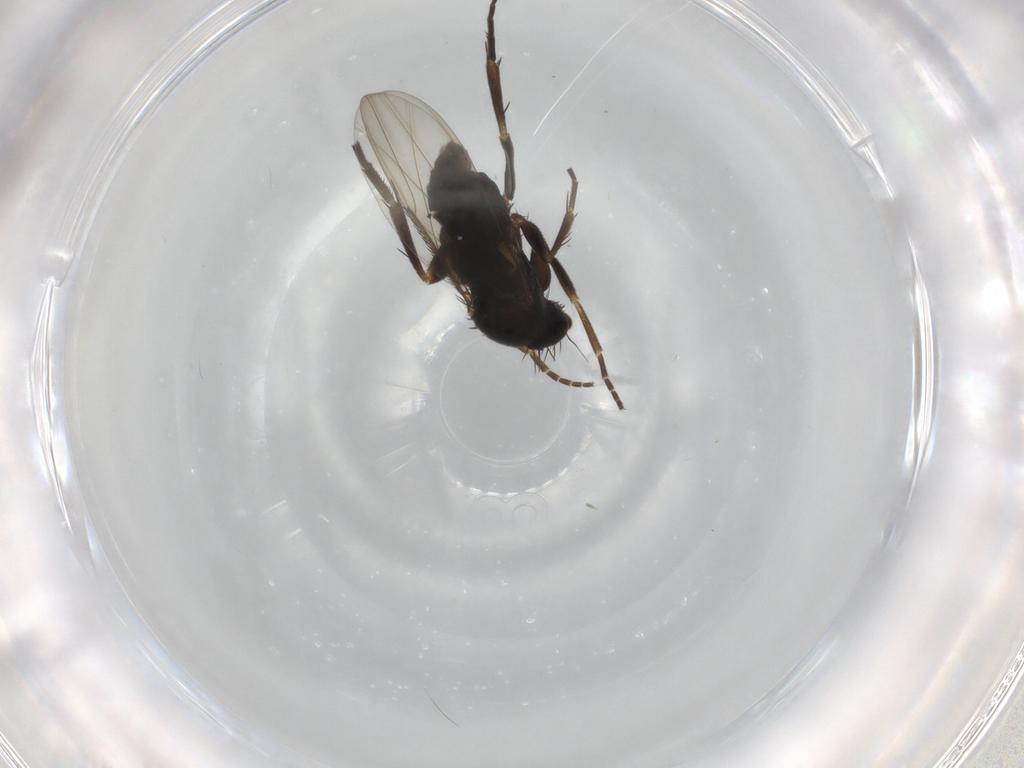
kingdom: Animalia
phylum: Arthropoda
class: Insecta
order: Diptera
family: Phoridae
